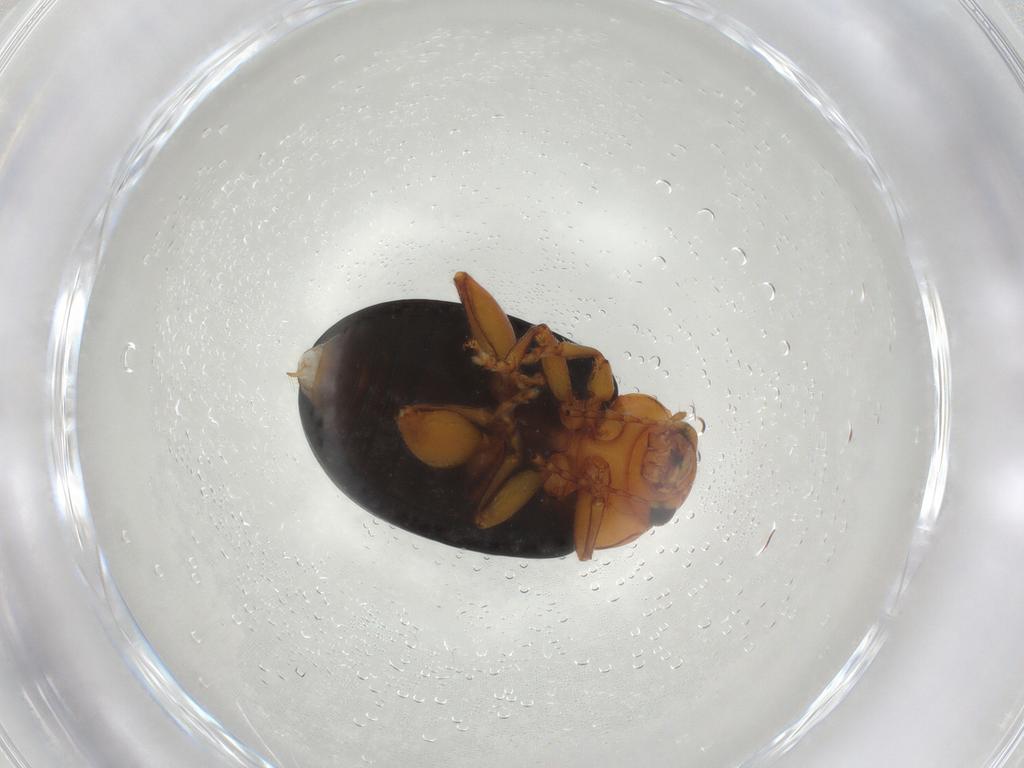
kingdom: Animalia
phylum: Arthropoda
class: Insecta
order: Coleoptera
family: Chrysomelidae
